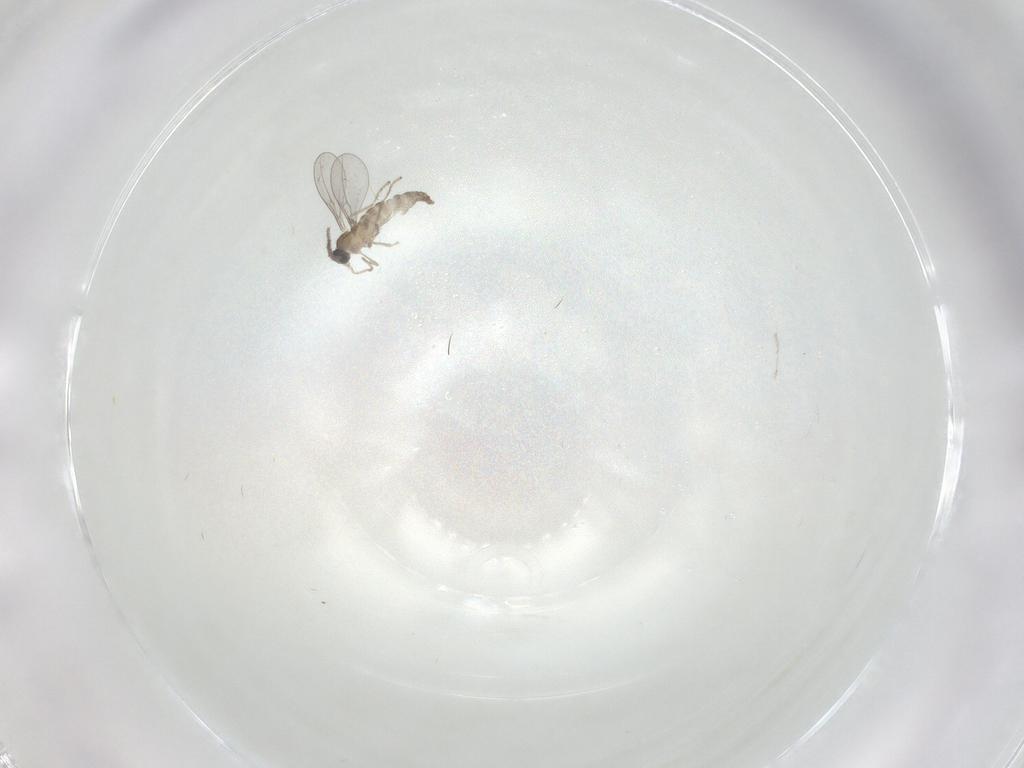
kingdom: Animalia
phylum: Arthropoda
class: Insecta
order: Diptera
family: Cecidomyiidae
